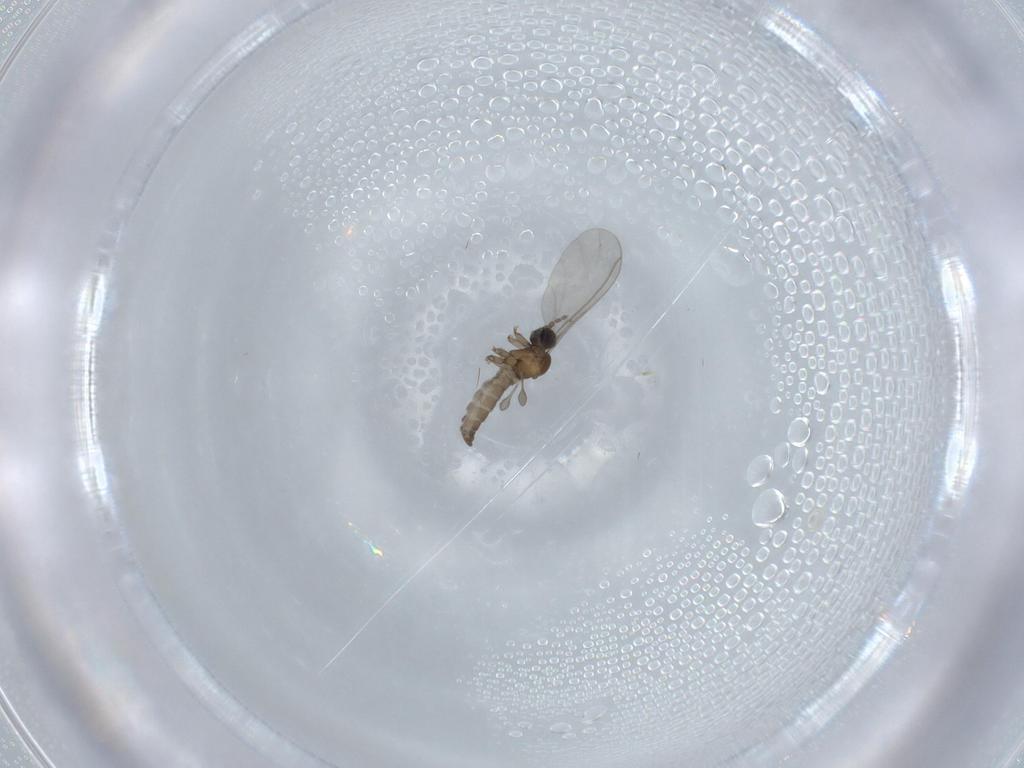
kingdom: Animalia
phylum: Arthropoda
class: Insecta
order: Diptera
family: Sciaridae
